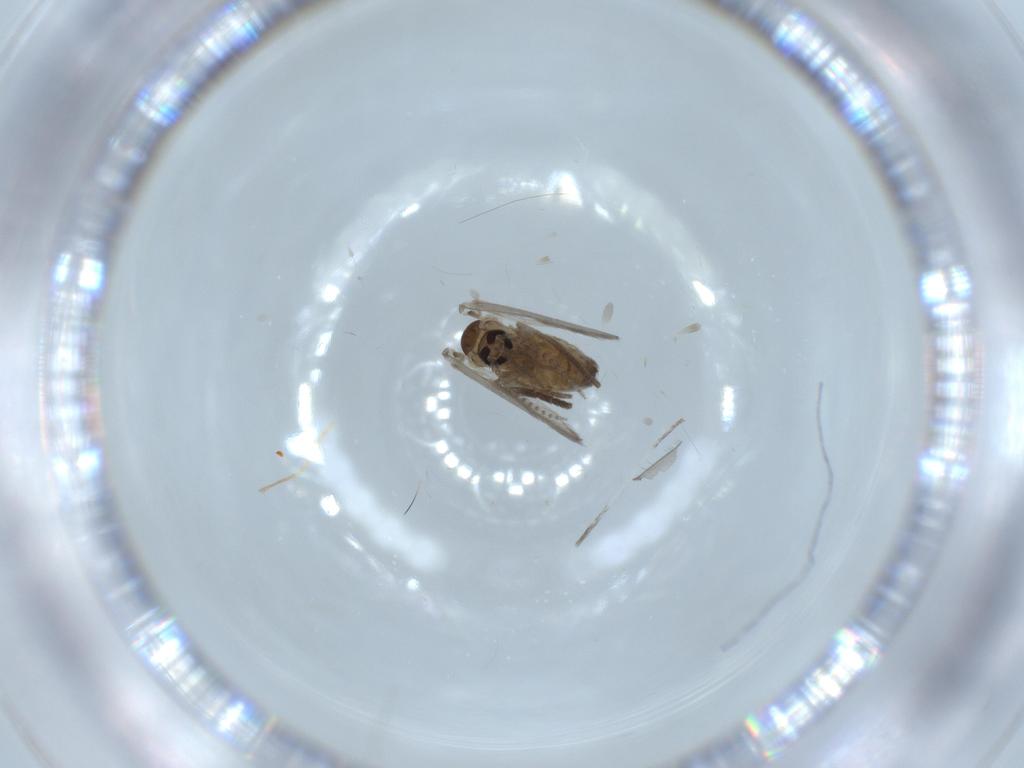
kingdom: Animalia
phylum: Arthropoda
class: Insecta
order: Diptera
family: Psychodidae
